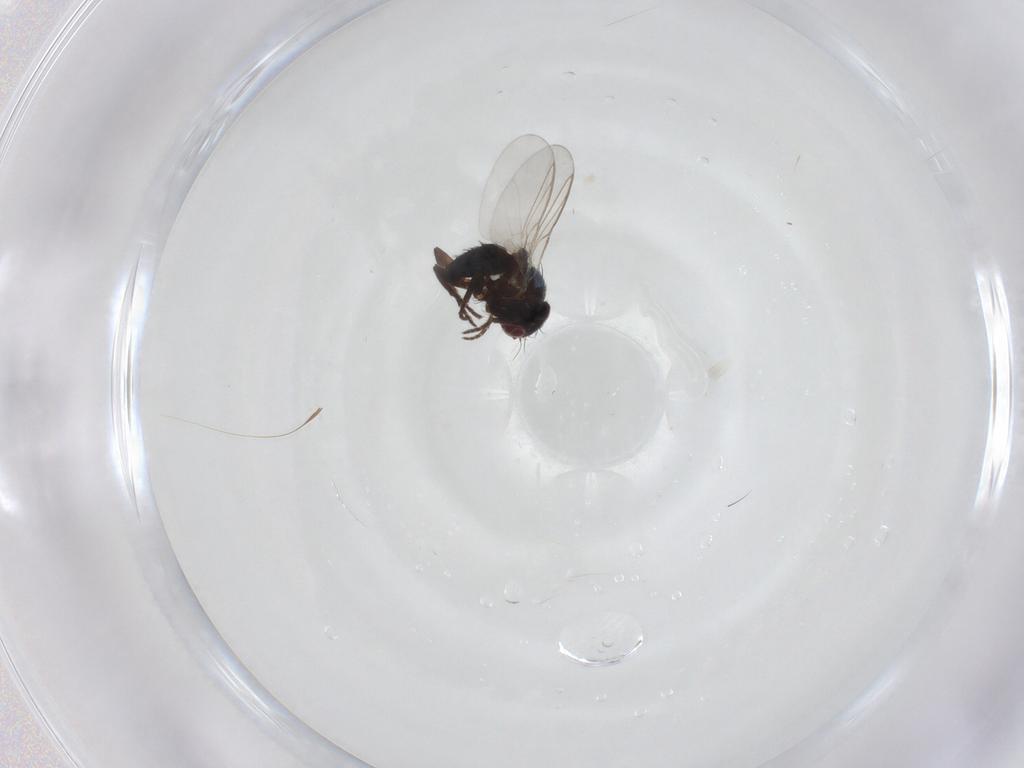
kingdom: Animalia
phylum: Arthropoda
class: Insecta
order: Diptera
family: Agromyzidae
